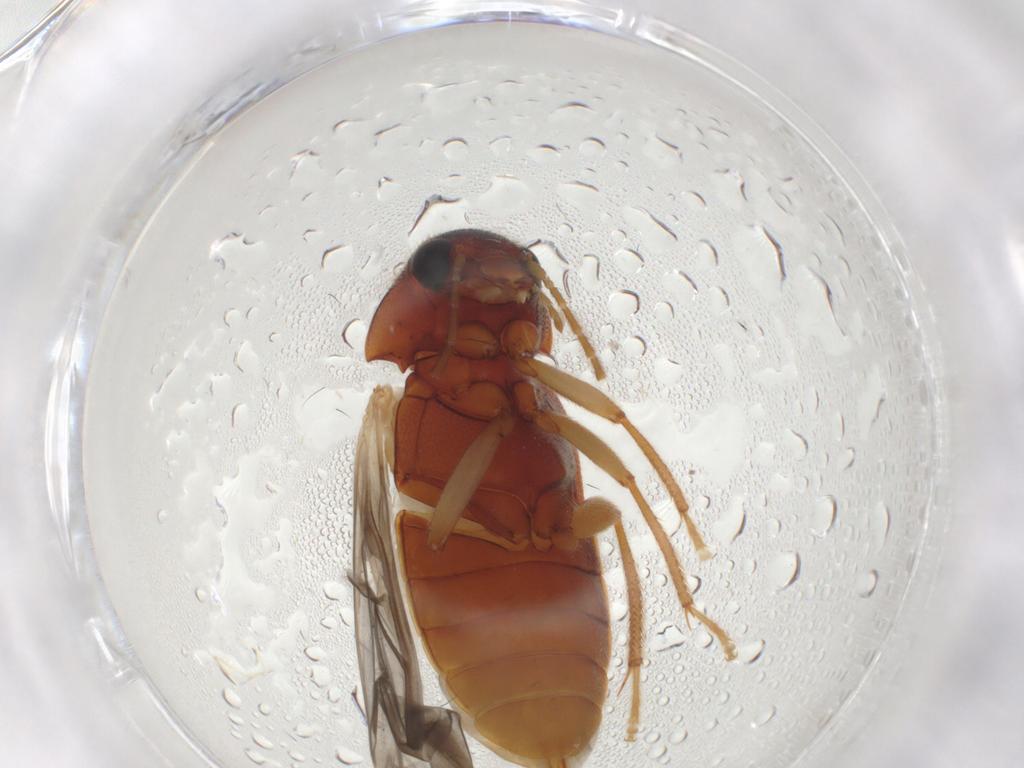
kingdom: Animalia
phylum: Arthropoda
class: Insecta
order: Coleoptera
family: Ptilodactylidae
